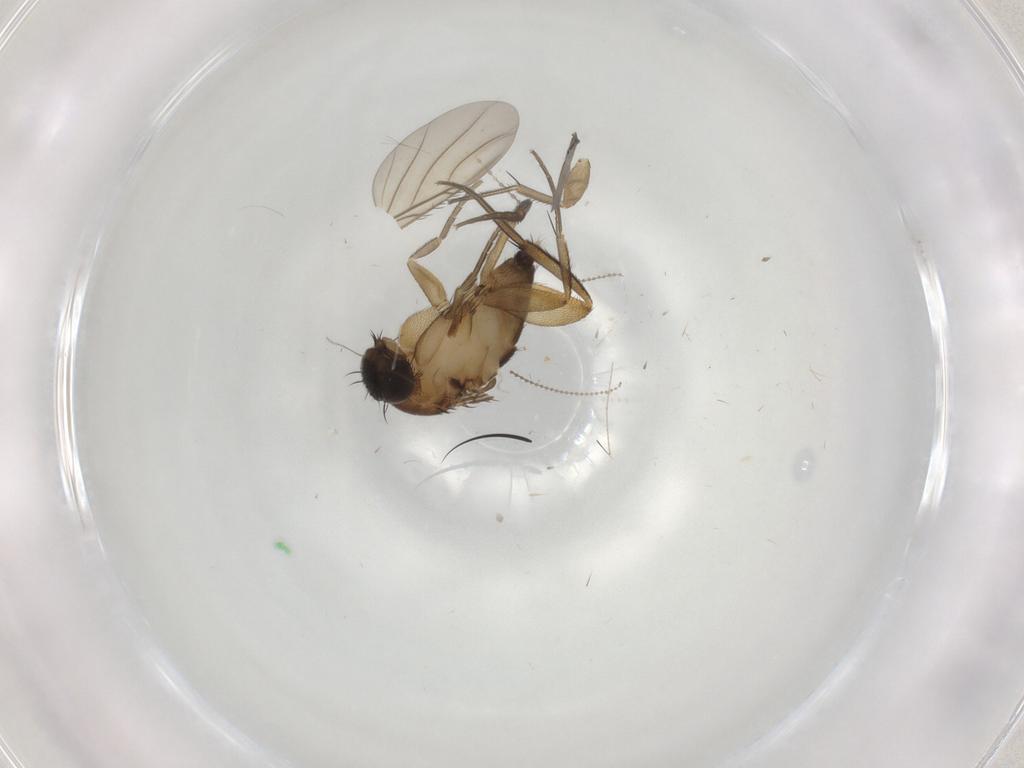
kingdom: Animalia
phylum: Arthropoda
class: Insecta
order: Diptera
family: Phoridae
